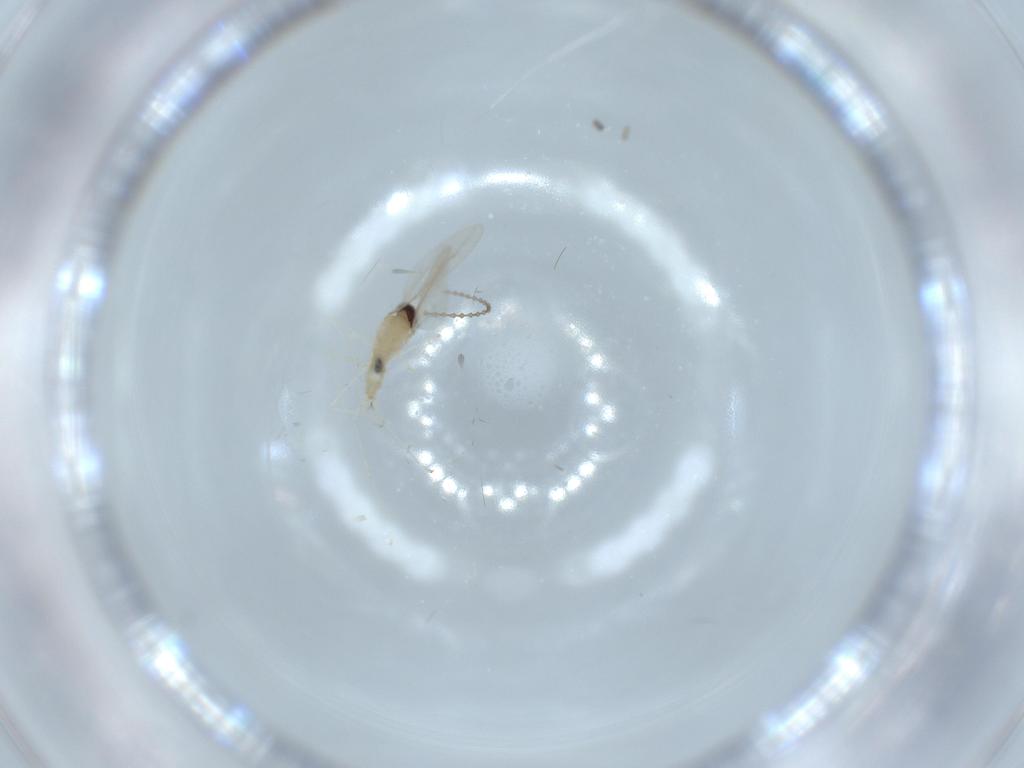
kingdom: Animalia
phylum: Arthropoda
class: Insecta
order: Diptera
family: Cecidomyiidae
